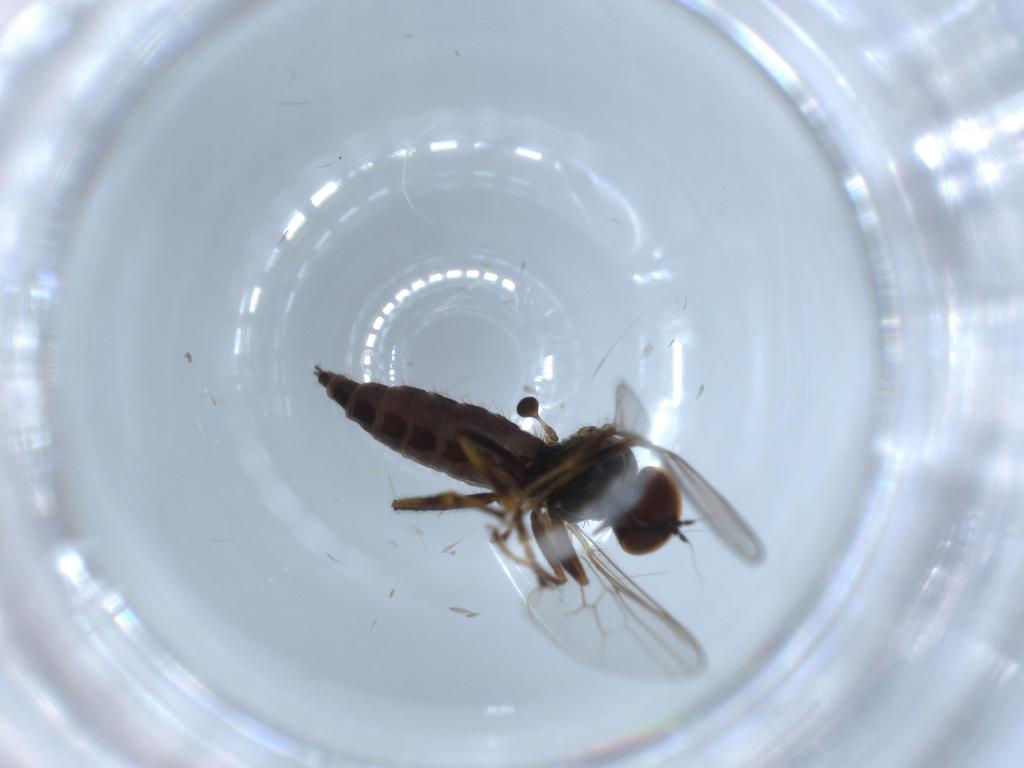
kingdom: Animalia
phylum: Arthropoda
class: Insecta
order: Diptera
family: Hybotidae
